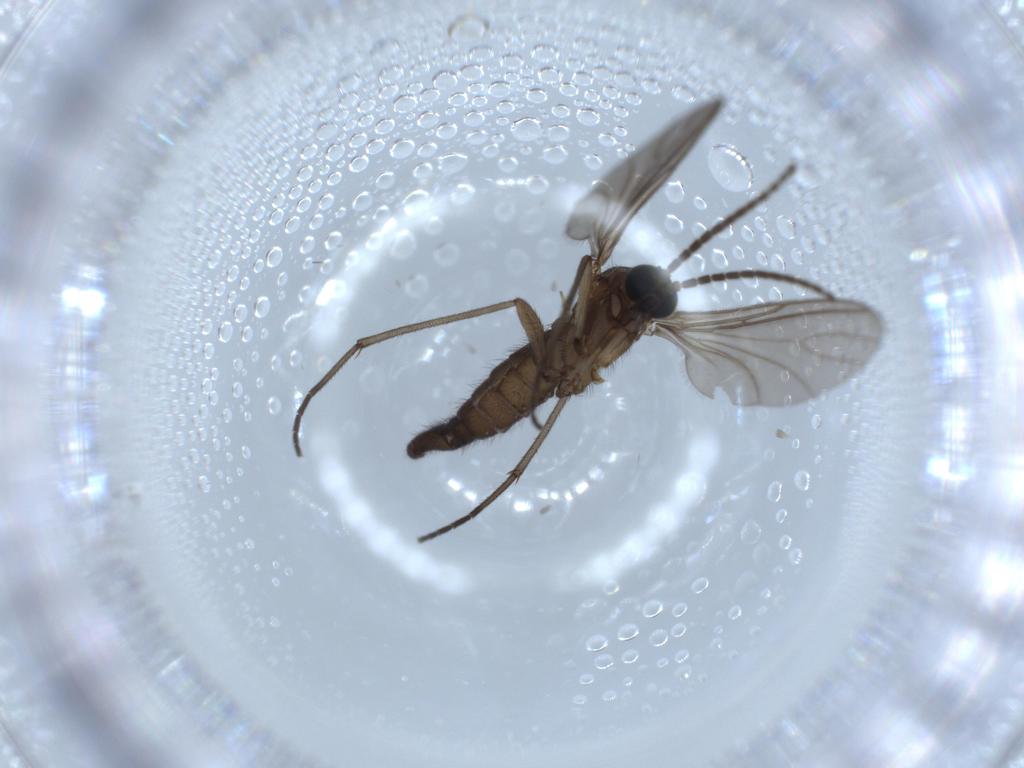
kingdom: Animalia
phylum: Arthropoda
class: Insecta
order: Diptera
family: Sciaridae
